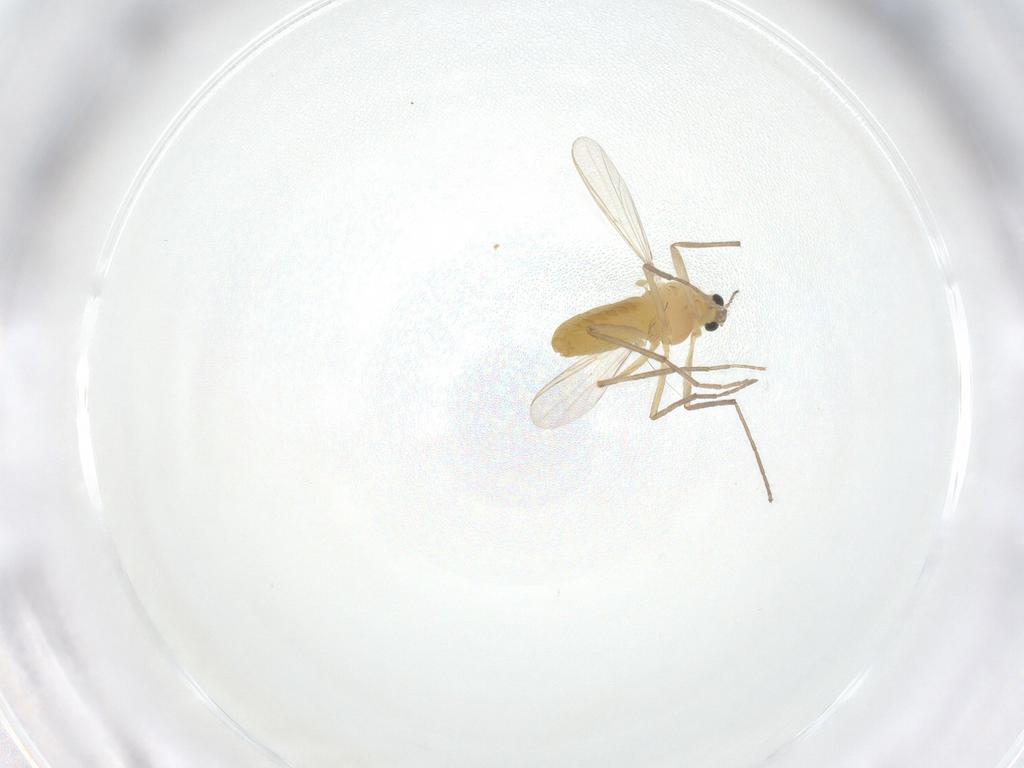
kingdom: Animalia
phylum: Arthropoda
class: Insecta
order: Diptera
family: Chironomidae
